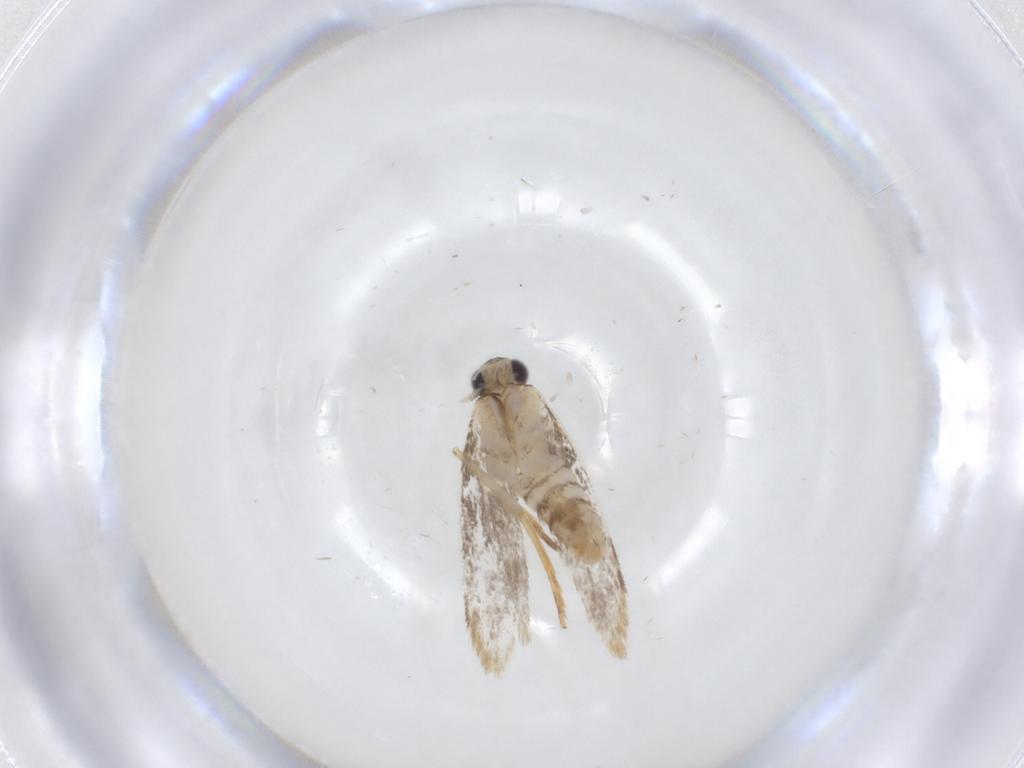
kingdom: Animalia
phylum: Arthropoda
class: Insecta
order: Lepidoptera
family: Dryadaulidae
